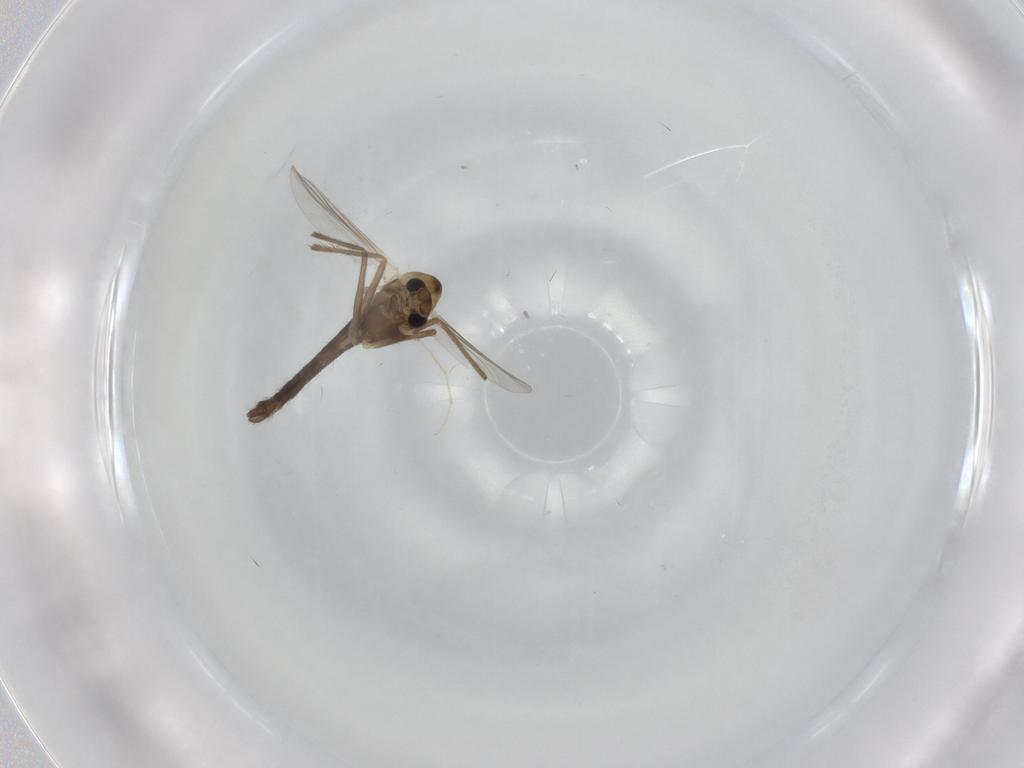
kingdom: Animalia
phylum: Arthropoda
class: Insecta
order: Diptera
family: Chironomidae
